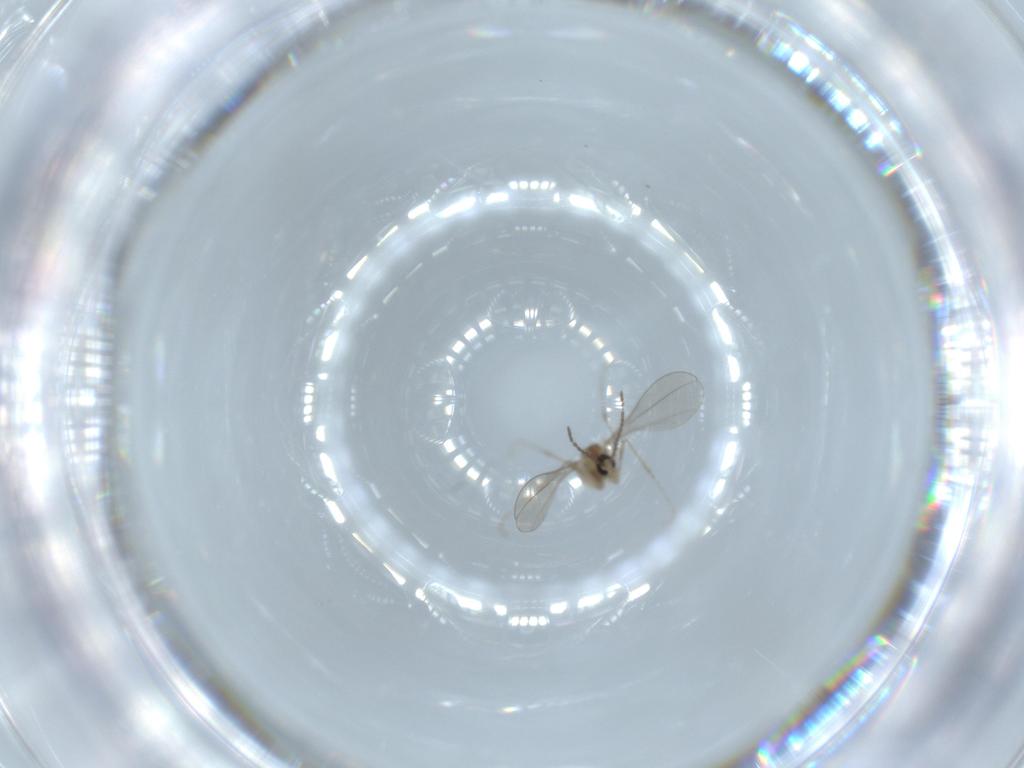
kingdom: Animalia
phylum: Arthropoda
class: Insecta
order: Diptera
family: Cecidomyiidae
